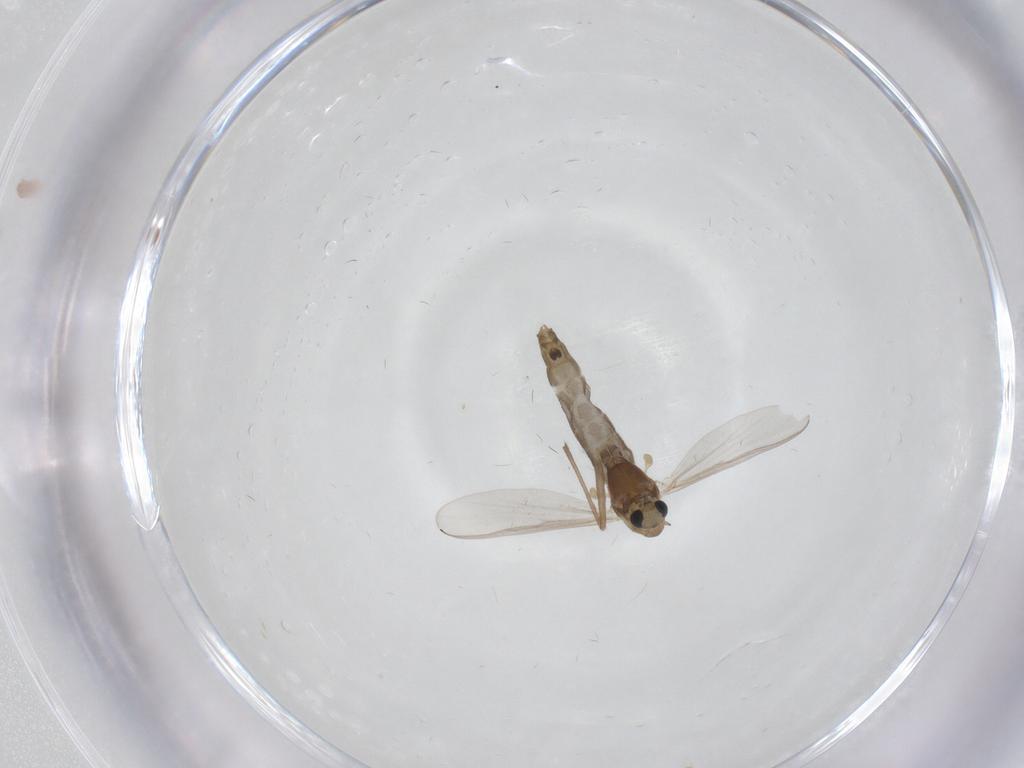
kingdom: Animalia
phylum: Arthropoda
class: Insecta
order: Diptera
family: Chironomidae
